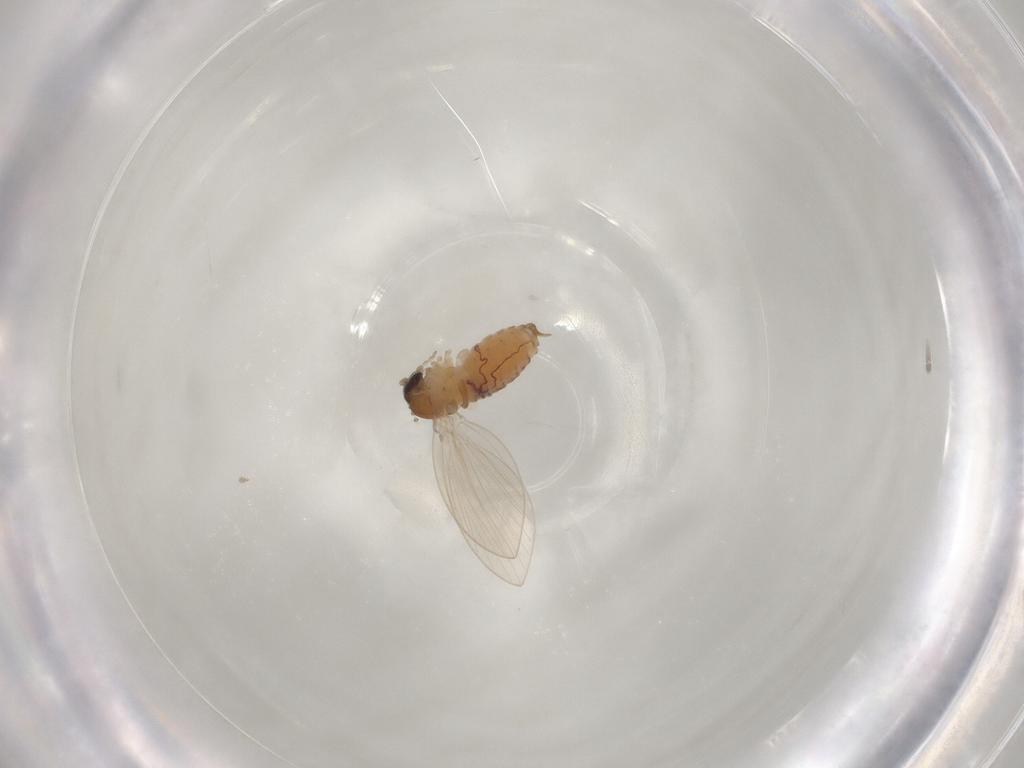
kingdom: Animalia
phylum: Arthropoda
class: Insecta
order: Diptera
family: Psychodidae
